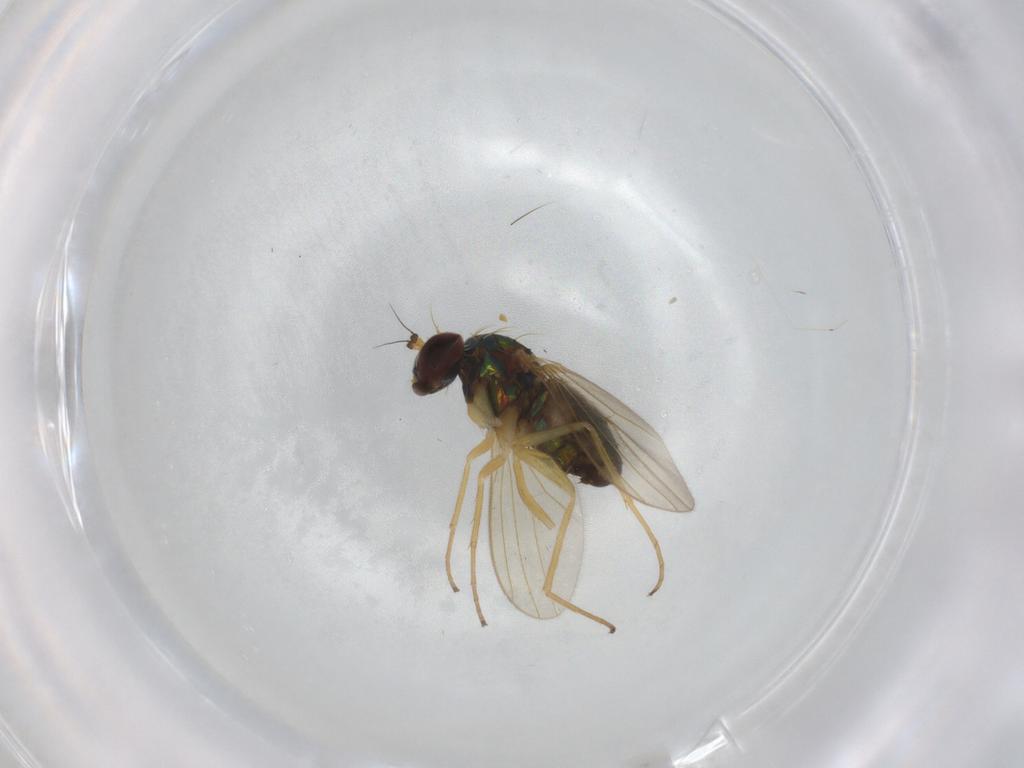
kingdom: Animalia
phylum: Arthropoda
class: Insecta
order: Diptera
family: Dolichopodidae
